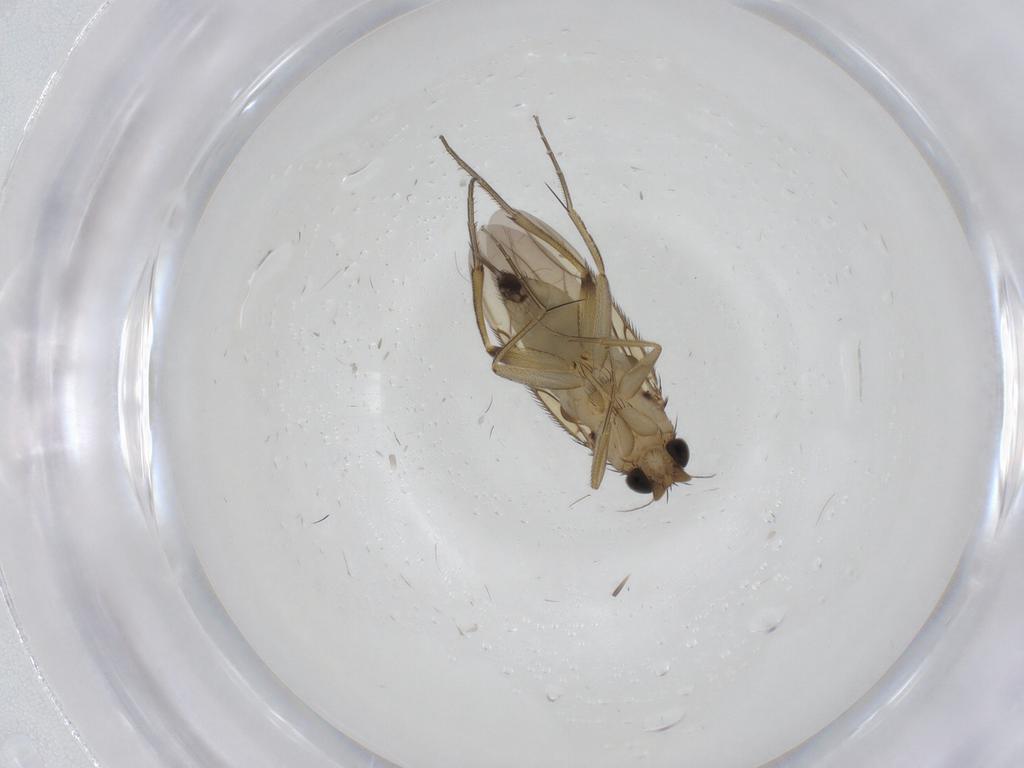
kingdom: Animalia
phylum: Arthropoda
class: Insecta
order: Diptera
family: Phoridae
